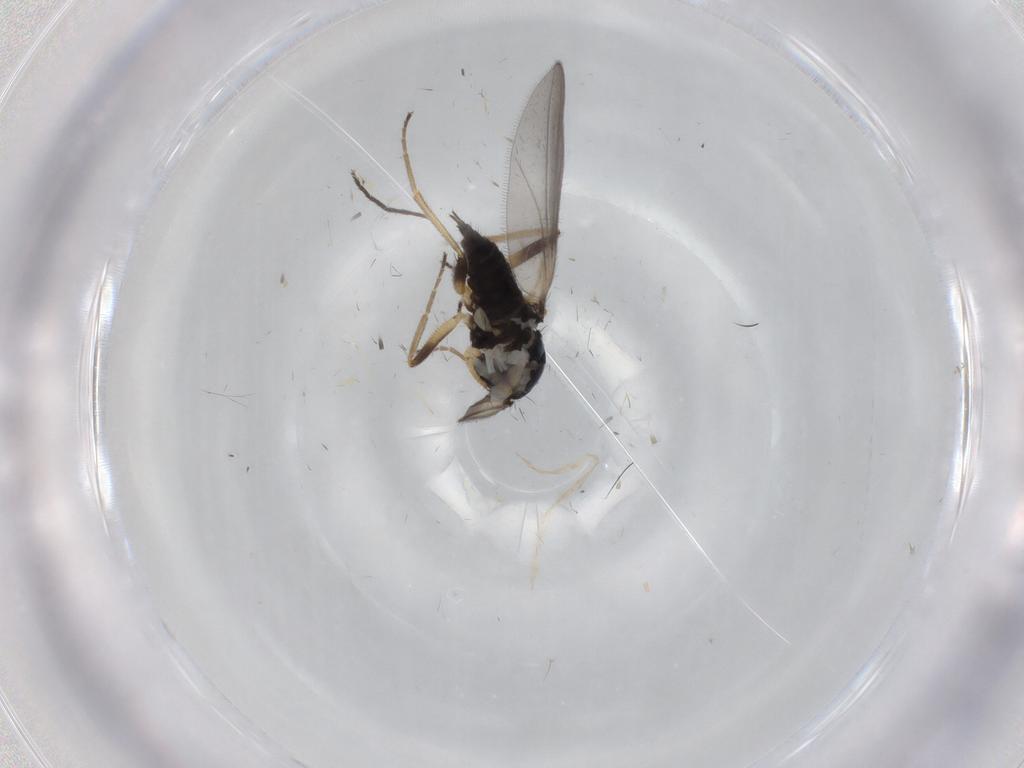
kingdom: Animalia
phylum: Arthropoda
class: Insecta
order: Diptera
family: Hybotidae
